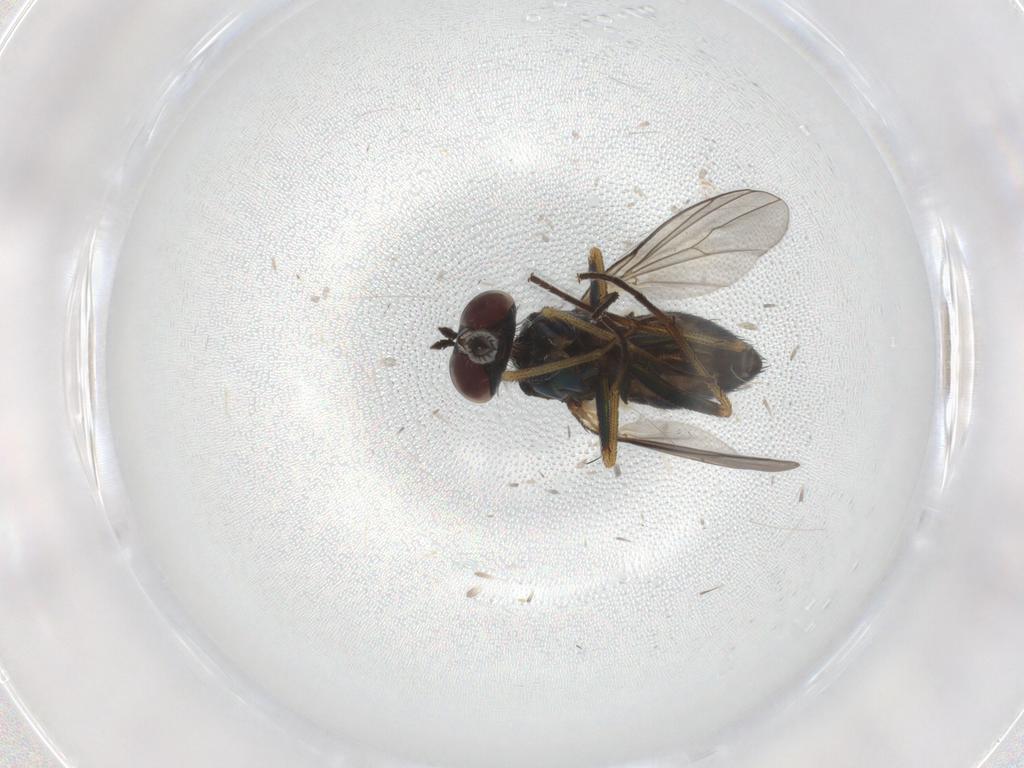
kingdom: Animalia
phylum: Arthropoda
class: Insecta
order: Diptera
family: Dolichopodidae
